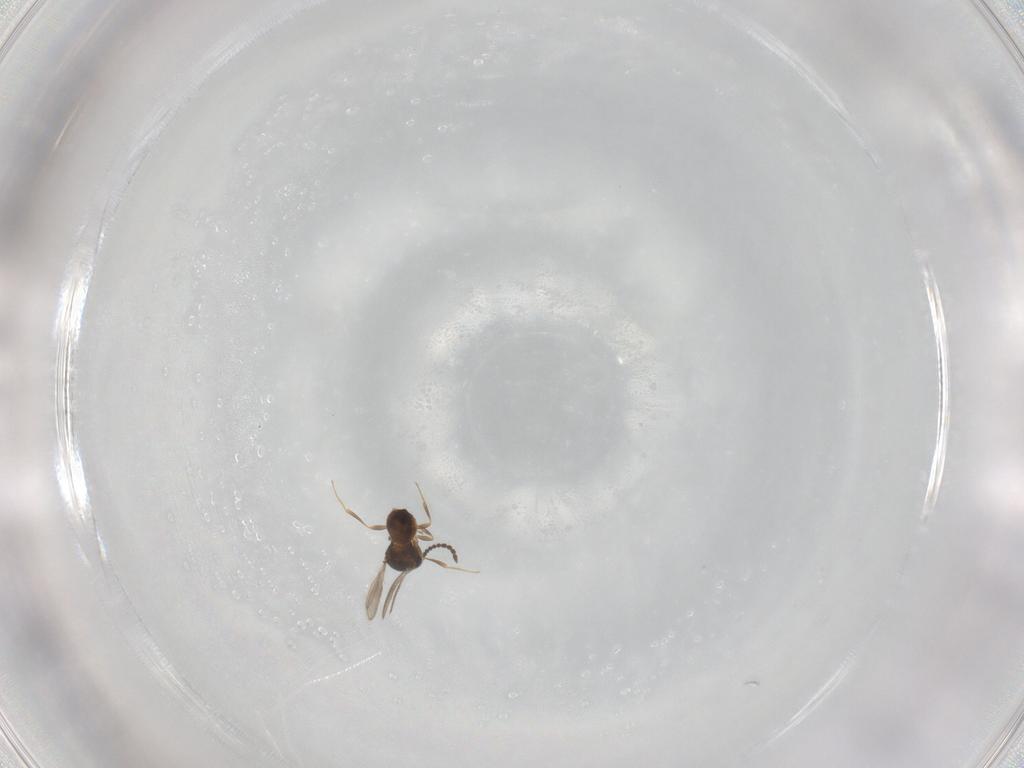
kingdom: Animalia
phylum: Arthropoda
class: Insecta
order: Hymenoptera
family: Scelionidae
